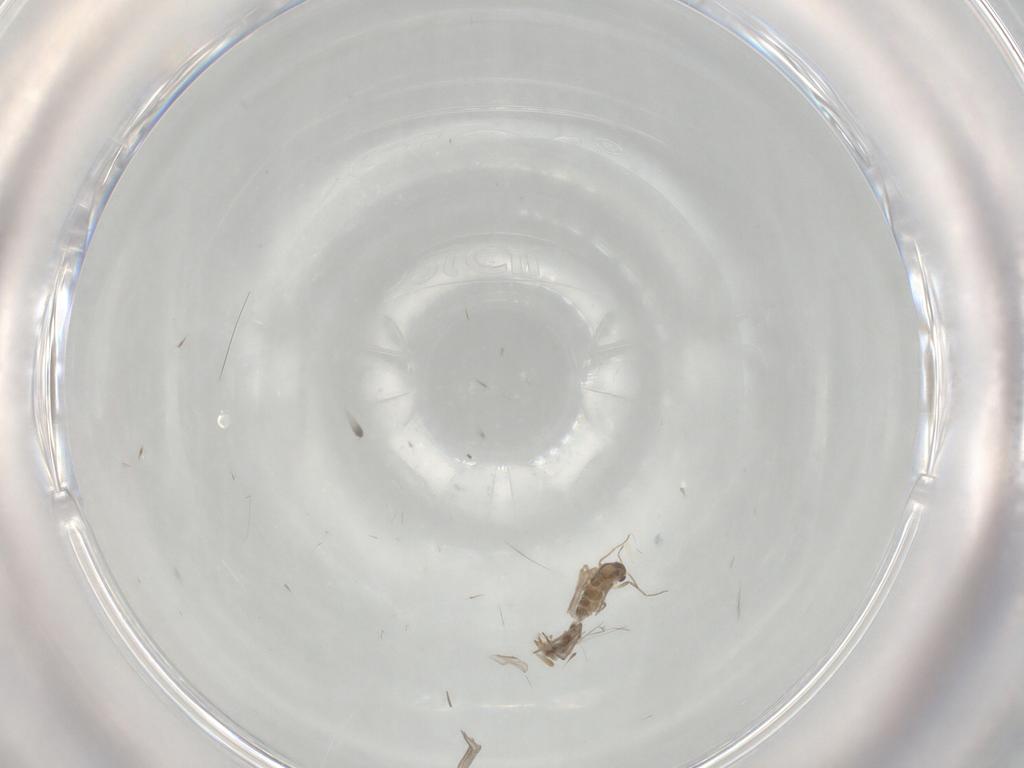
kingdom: Animalia
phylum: Arthropoda
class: Insecta
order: Diptera
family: Chironomidae
